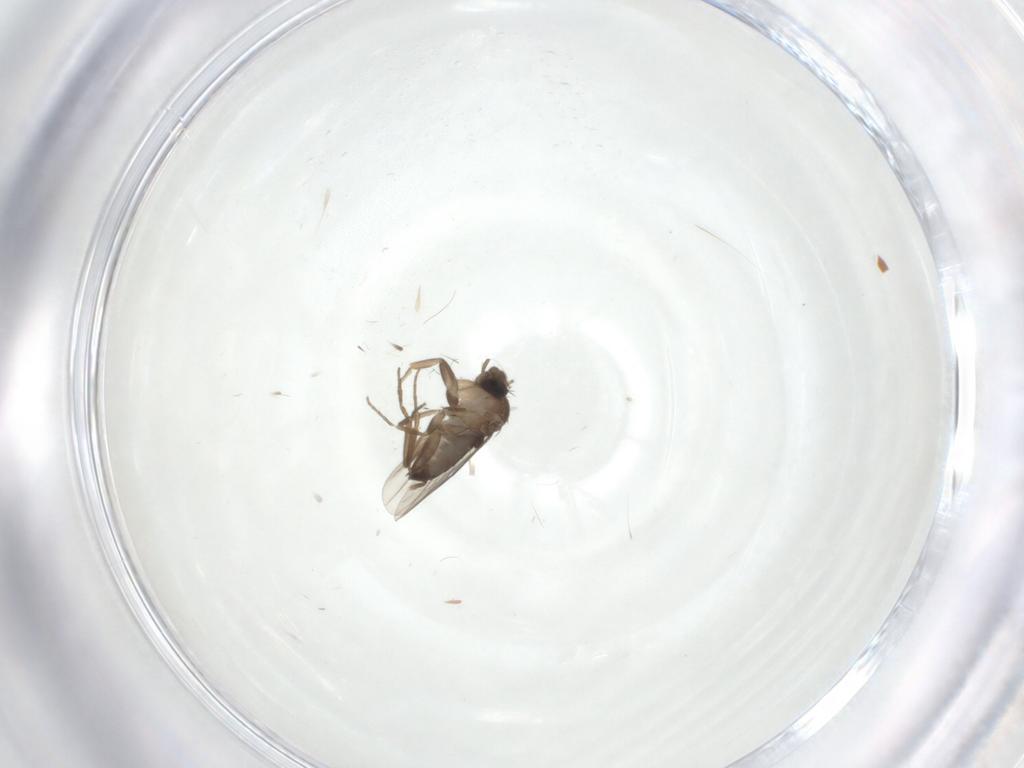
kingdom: Animalia
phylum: Arthropoda
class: Insecta
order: Diptera
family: Cecidomyiidae
